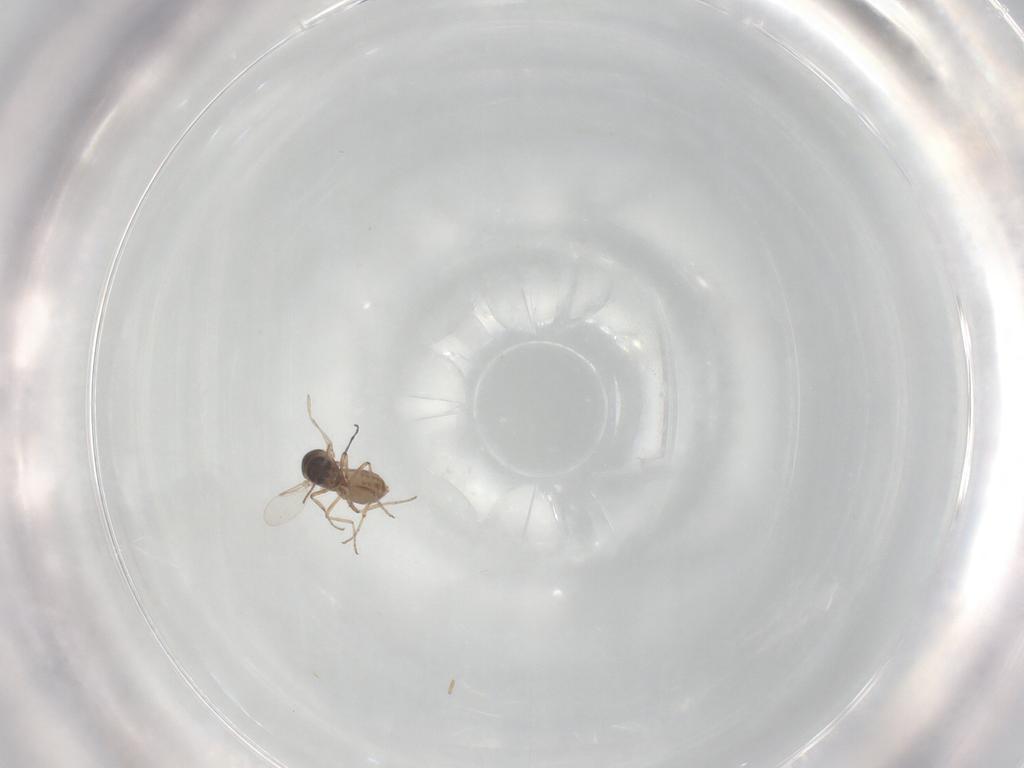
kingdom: Animalia
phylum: Arthropoda
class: Insecta
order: Diptera
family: Ceratopogonidae
